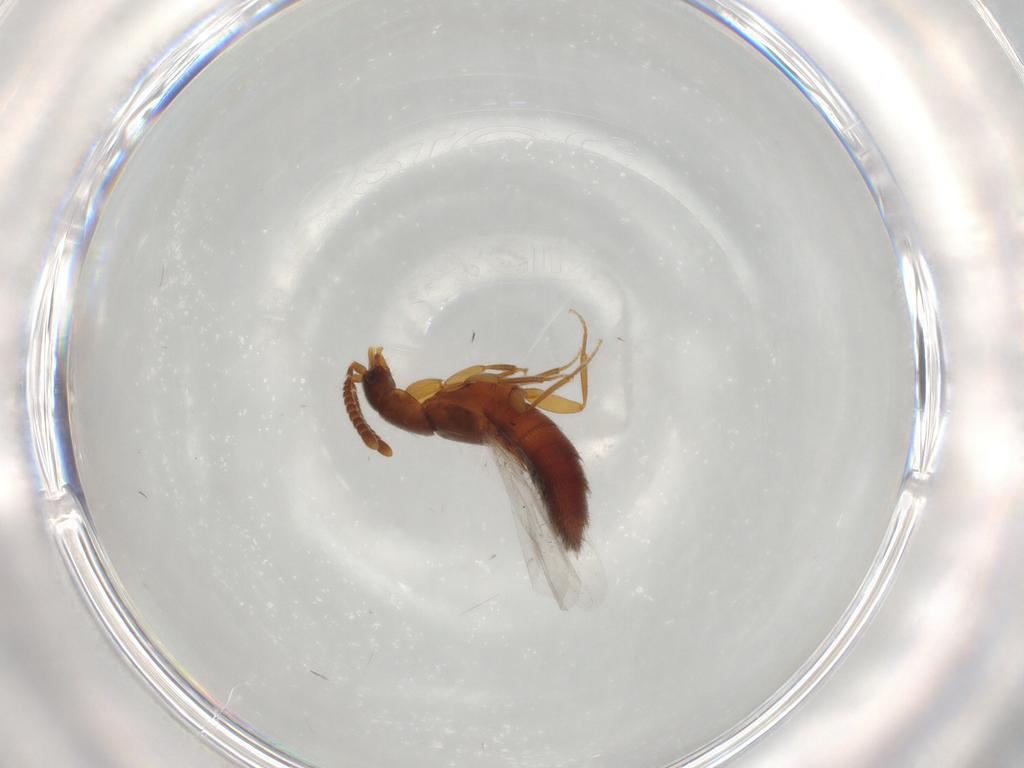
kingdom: Animalia
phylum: Arthropoda
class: Insecta
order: Coleoptera
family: Staphylinidae
